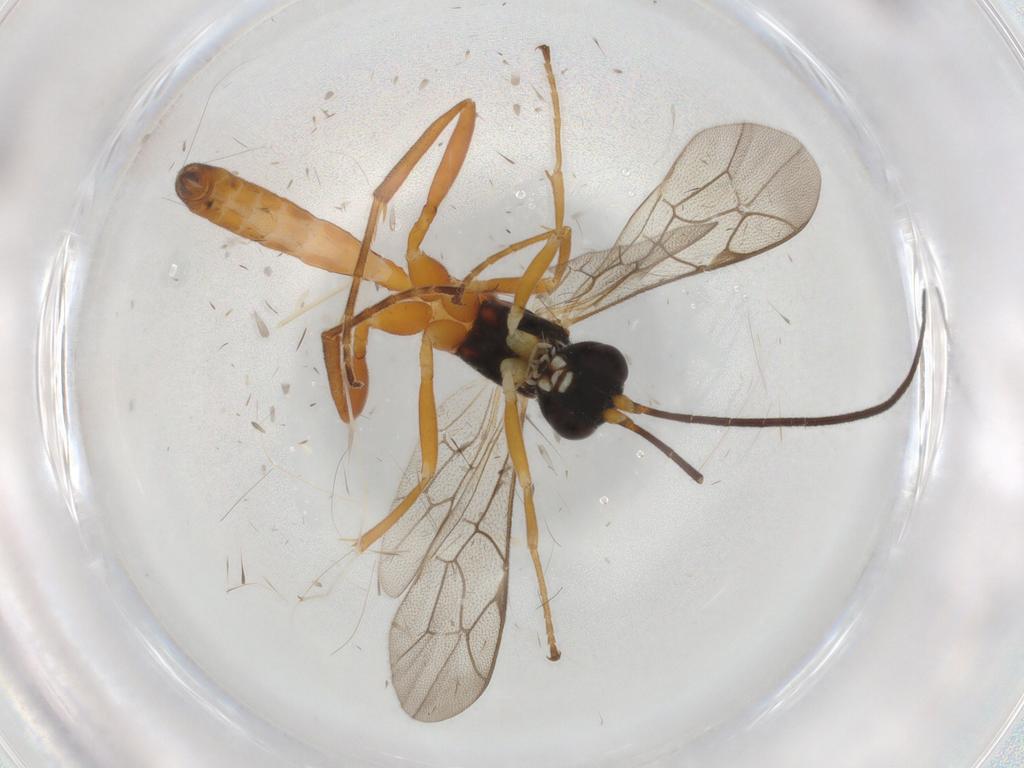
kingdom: Animalia
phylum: Arthropoda
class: Insecta
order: Hymenoptera
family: Ichneumonidae
